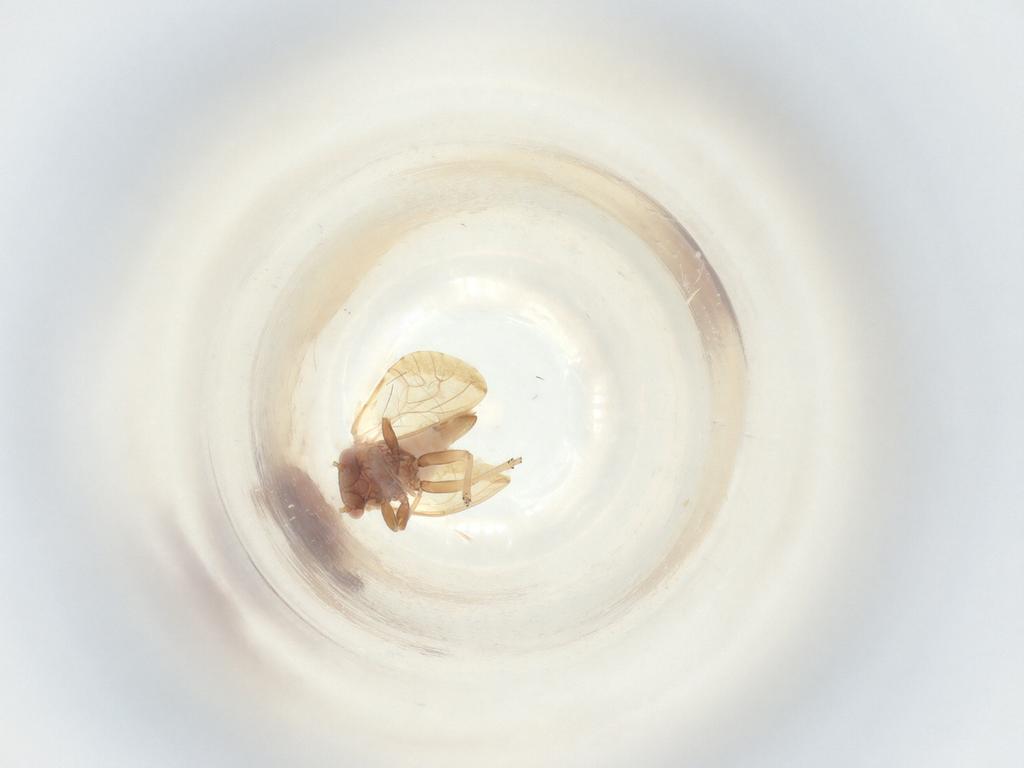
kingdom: Animalia
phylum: Arthropoda
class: Insecta
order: Hemiptera
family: Psyllidae
